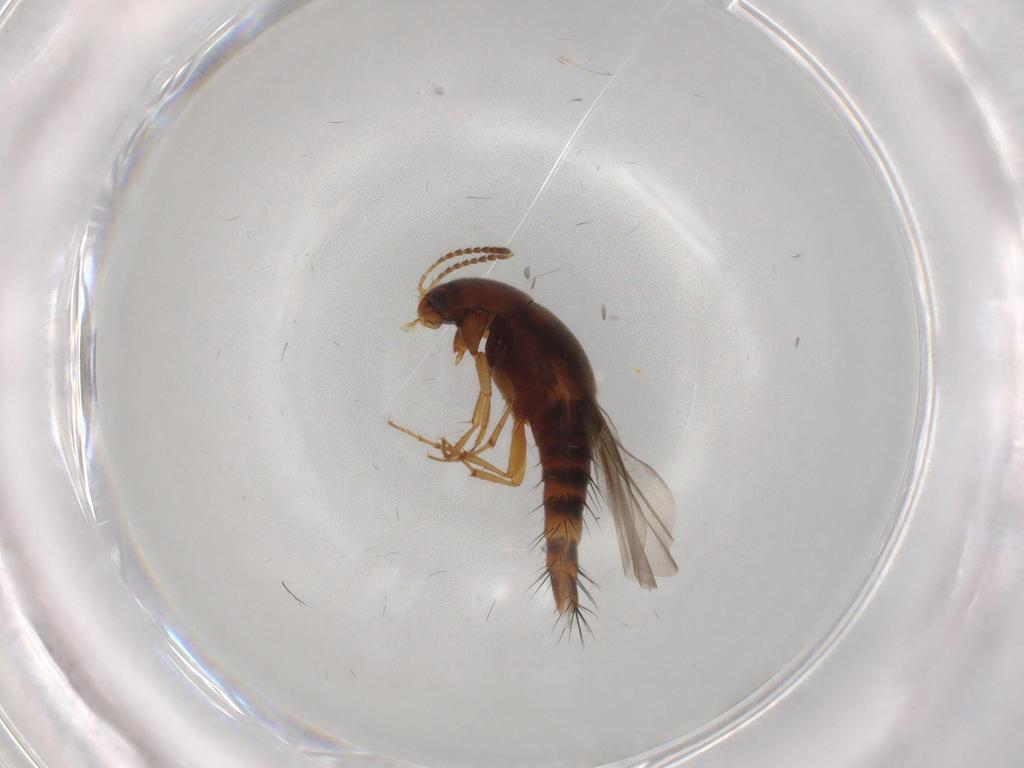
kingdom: Animalia
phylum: Arthropoda
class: Insecta
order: Coleoptera
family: Staphylinidae
